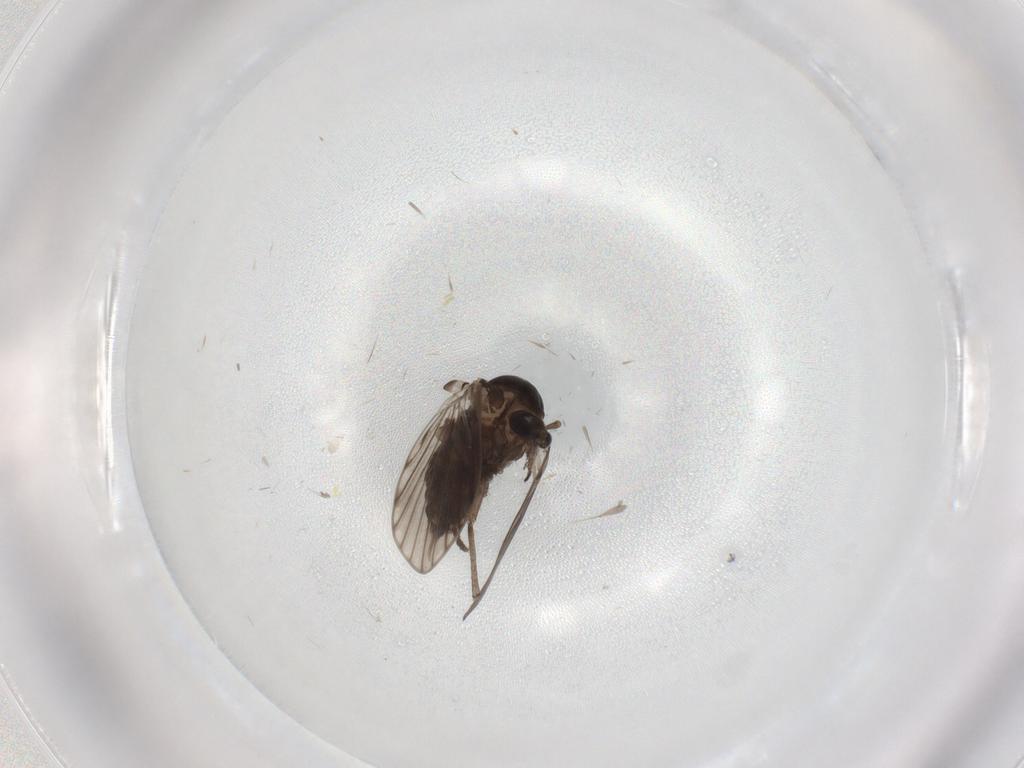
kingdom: Animalia
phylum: Arthropoda
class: Insecta
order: Diptera
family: Psychodidae
